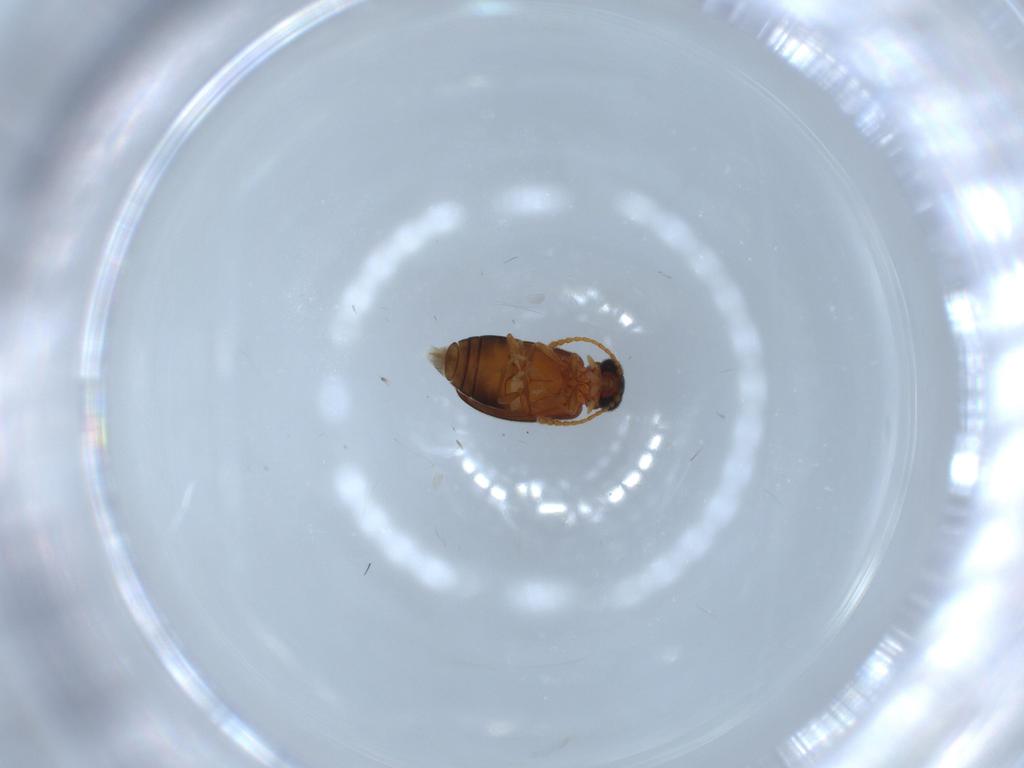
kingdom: Animalia
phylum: Arthropoda
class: Insecta
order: Coleoptera
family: Aderidae
